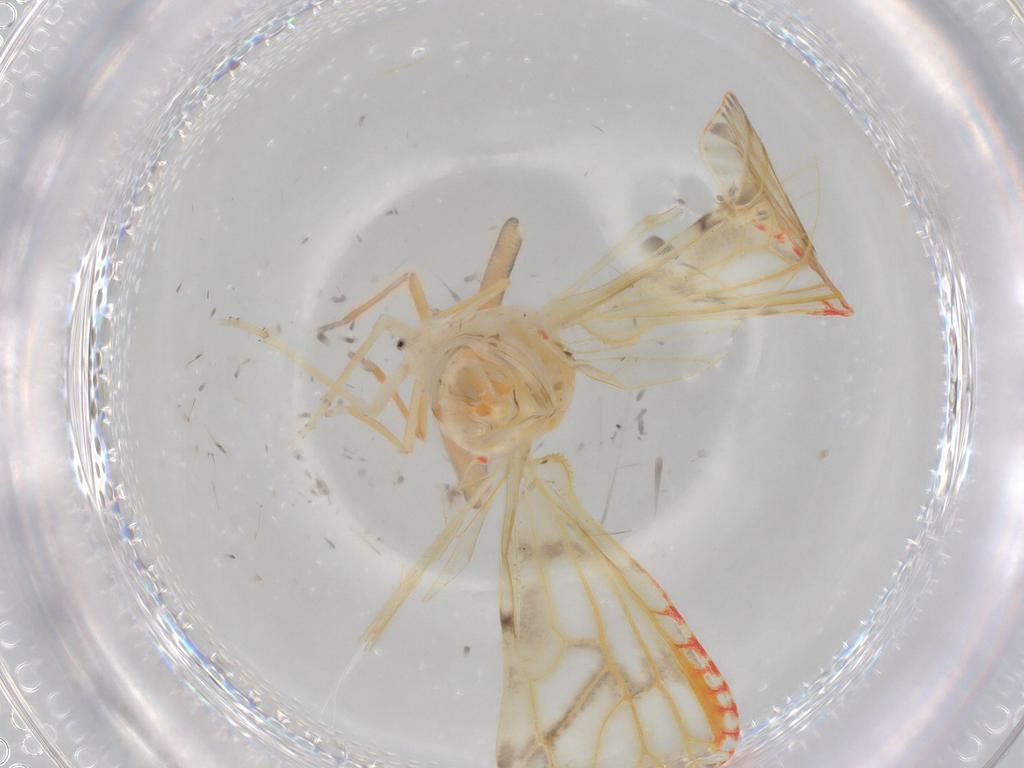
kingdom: Animalia
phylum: Arthropoda
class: Insecta
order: Hemiptera
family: Derbidae
